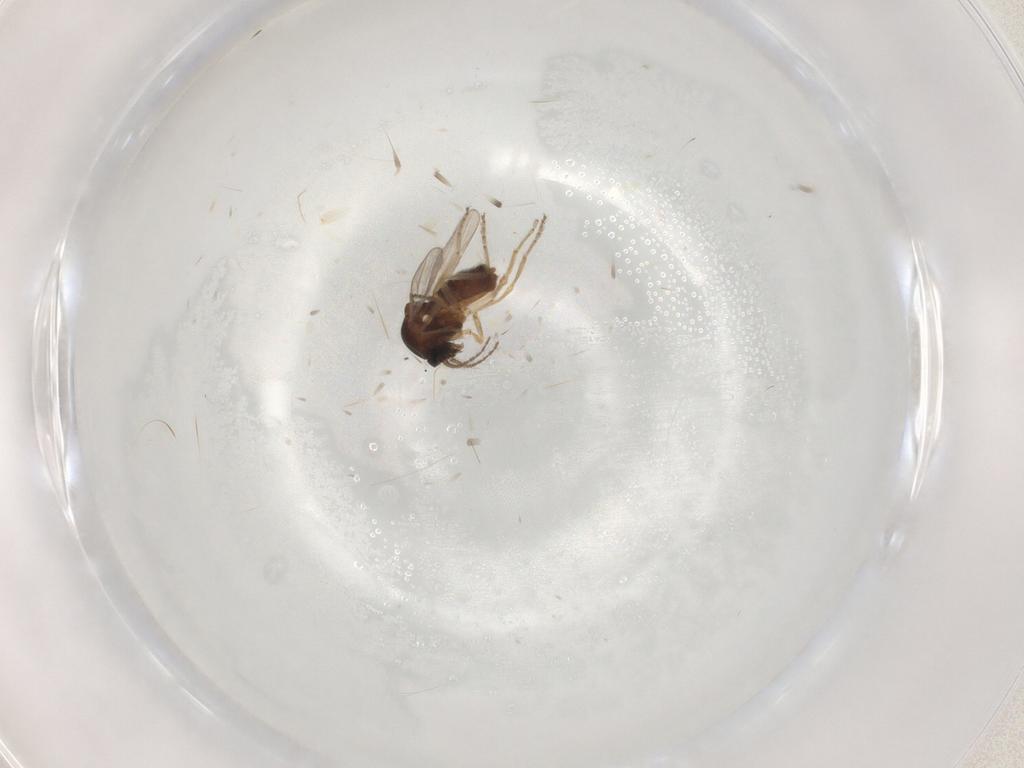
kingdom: Animalia
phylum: Arthropoda
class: Insecta
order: Diptera
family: Ceratopogonidae
